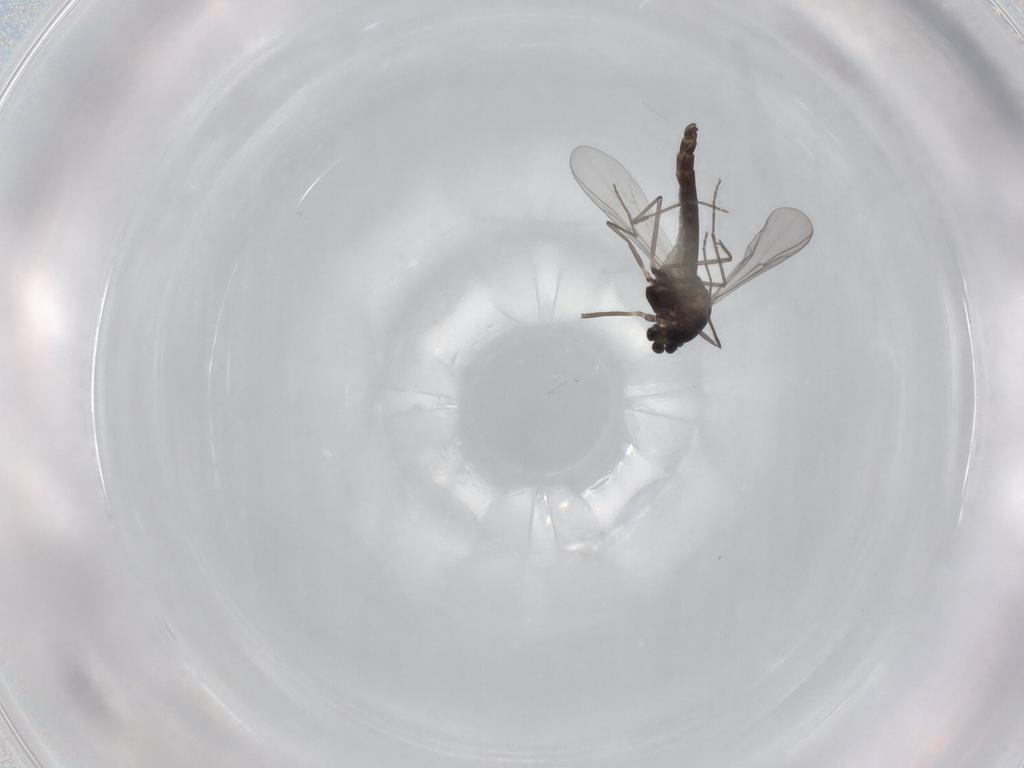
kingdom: Animalia
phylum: Arthropoda
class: Insecta
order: Diptera
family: Chironomidae
